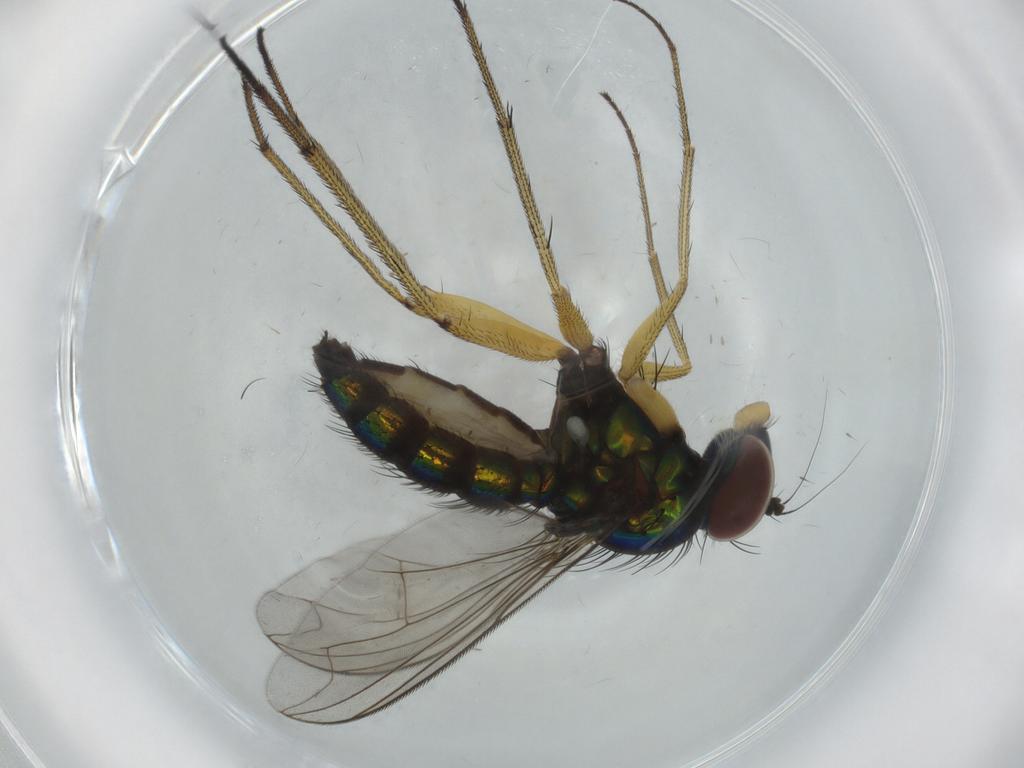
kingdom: Animalia
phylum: Arthropoda
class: Insecta
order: Diptera
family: Dolichopodidae
